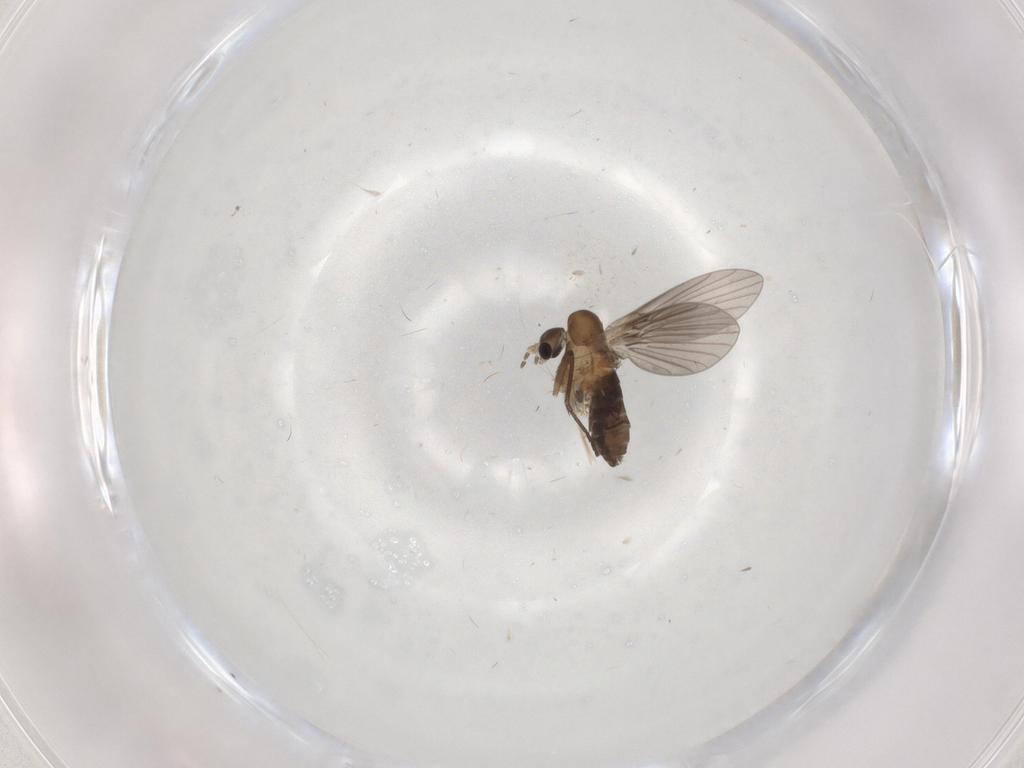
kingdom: Animalia
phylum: Arthropoda
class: Insecta
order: Diptera
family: Psychodidae
